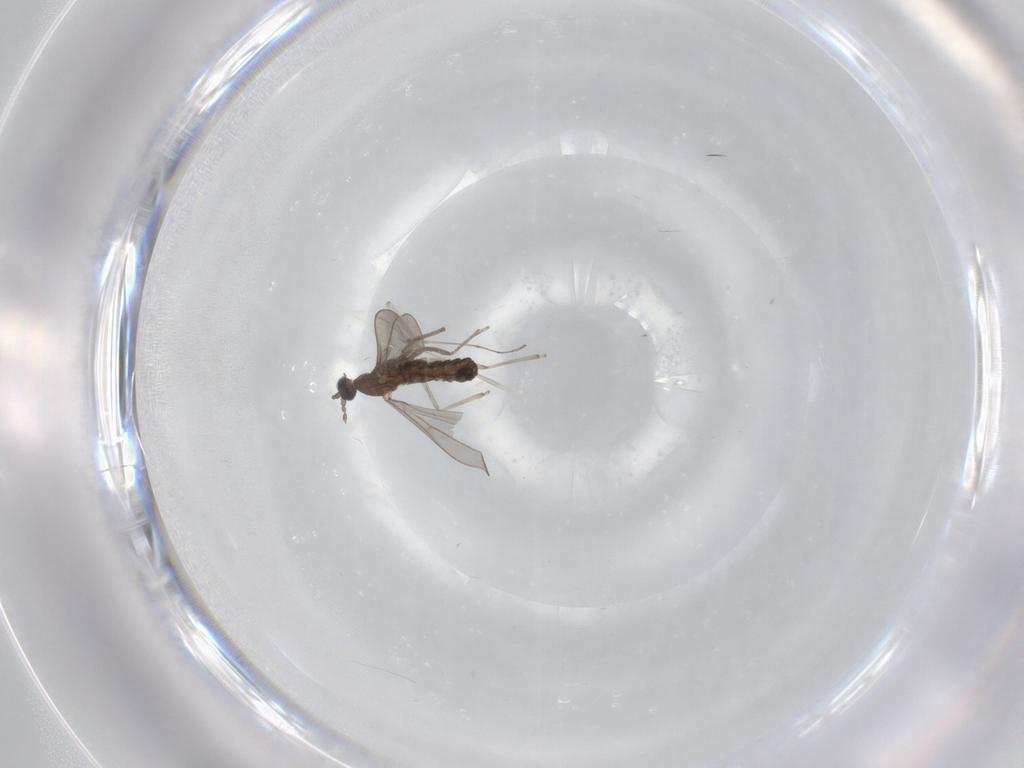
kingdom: Animalia
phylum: Arthropoda
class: Insecta
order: Diptera
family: Cecidomyiidae
